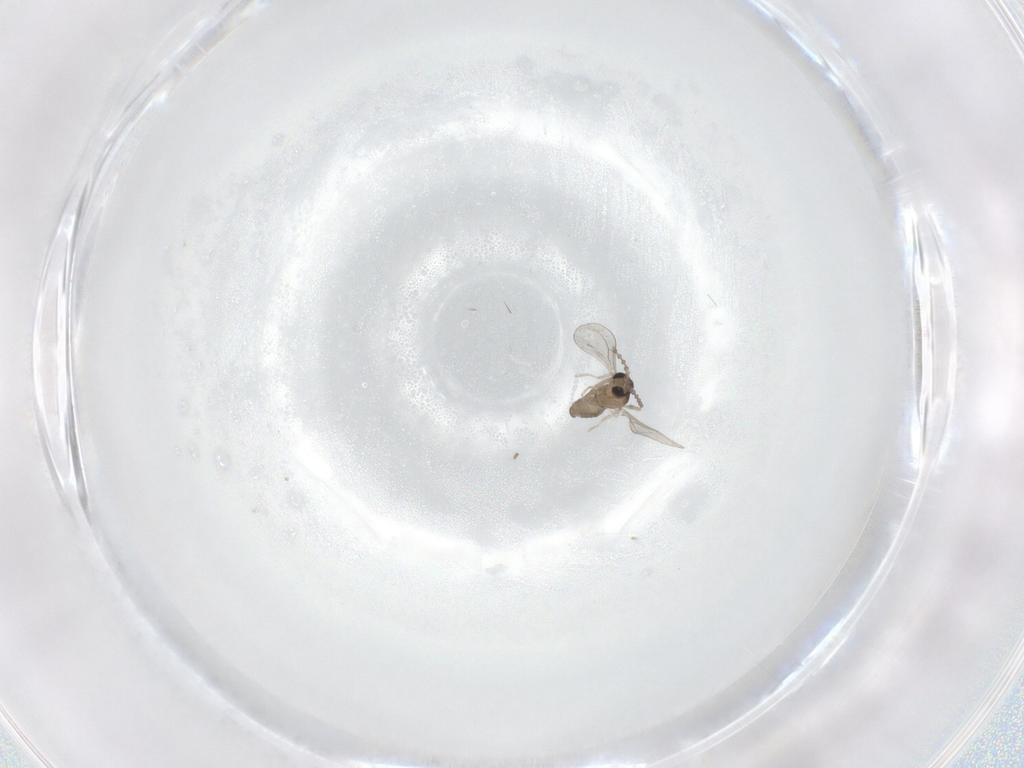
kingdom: Animalia
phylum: Arthropoda
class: Insecta
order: Diptera
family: Cecidomyiidae
